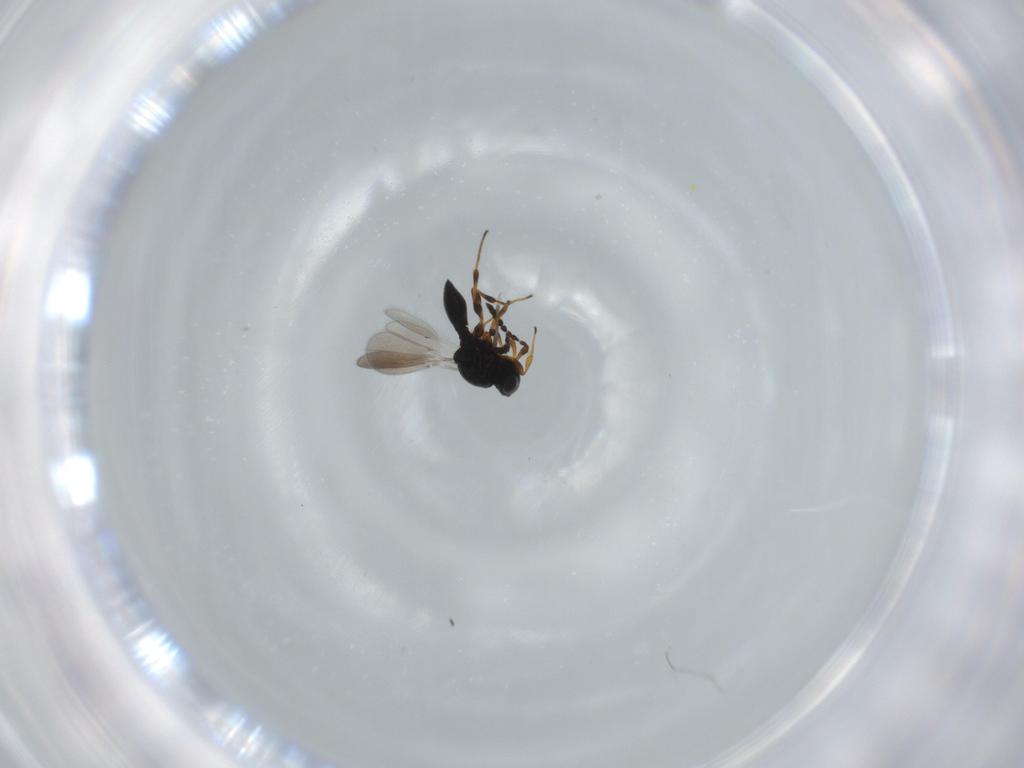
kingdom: Animalia
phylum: Arthropoda
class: Insecta
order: Hymenoptera
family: Platygastridae
